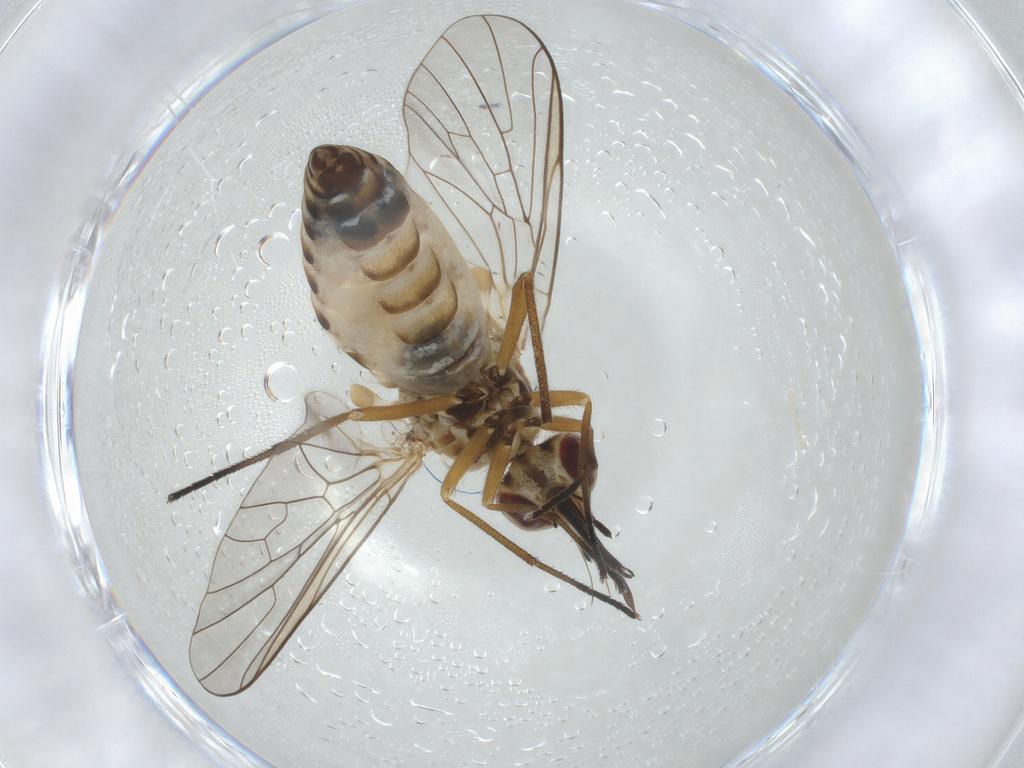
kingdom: Animalia
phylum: Arthropoda
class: Insecta
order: Diptera
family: Bombyliidae
